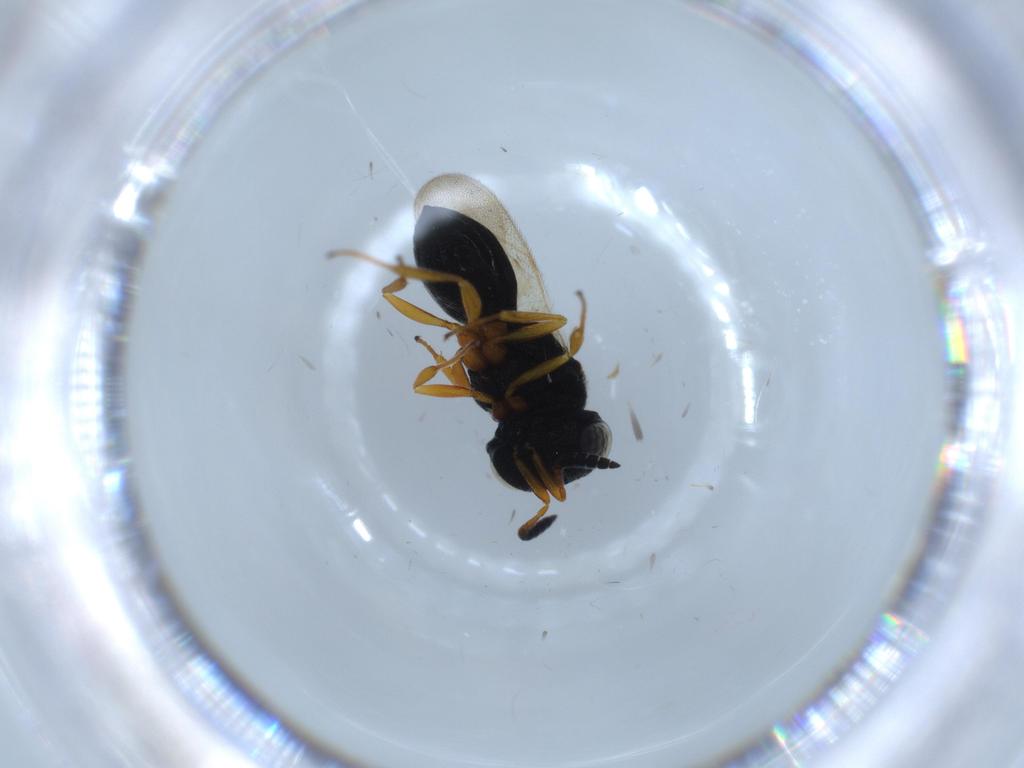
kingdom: Animalia
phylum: Arthropoda
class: Insecta
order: Hymenoptera
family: Scelionidae
